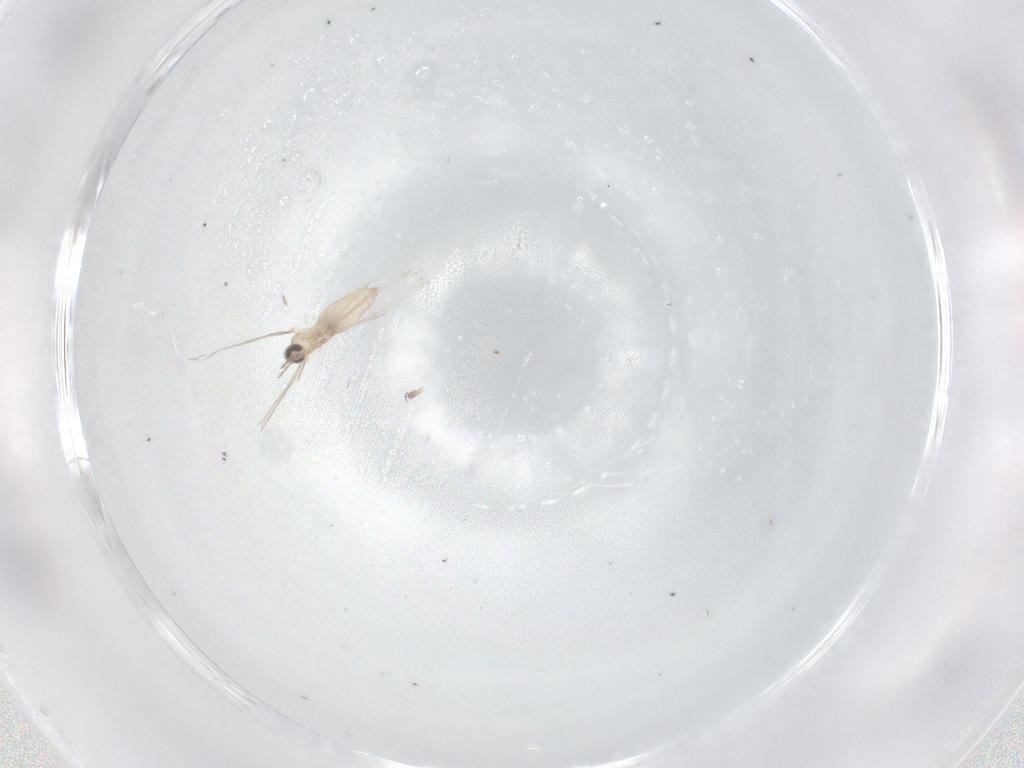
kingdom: Animalia
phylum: Arthropoda
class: Insecta
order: Diptera
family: Cecidomyiidae
